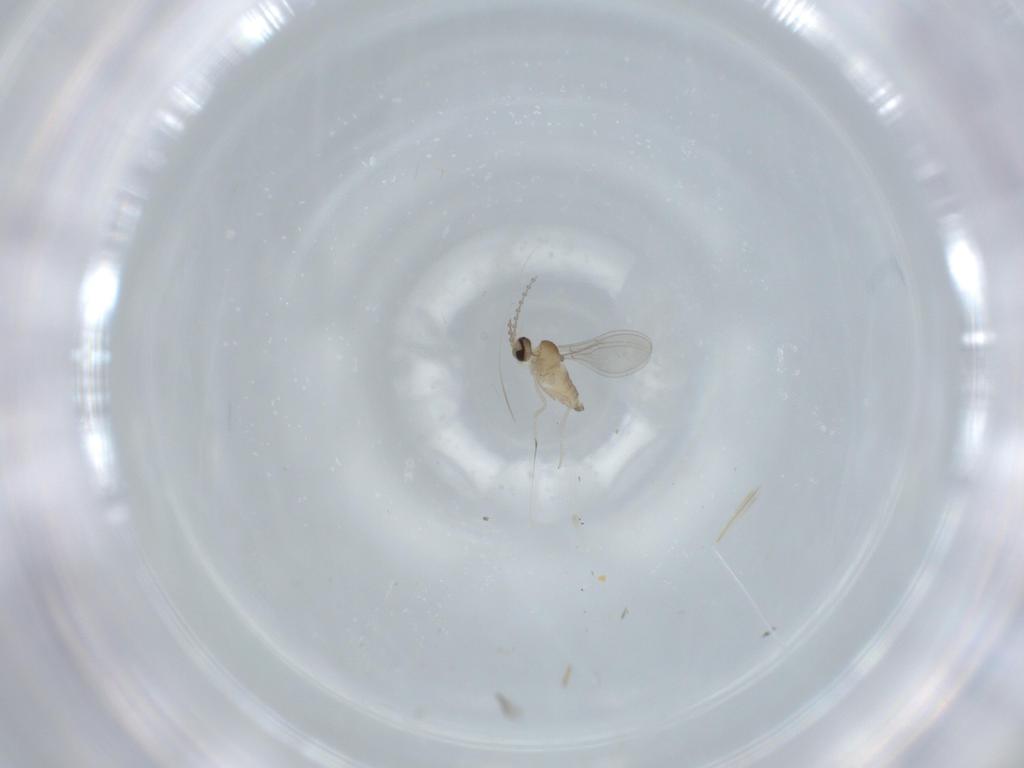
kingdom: Animalia
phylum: Arthropoda
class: Insecta
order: Diptera
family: Cecidomyiidae
